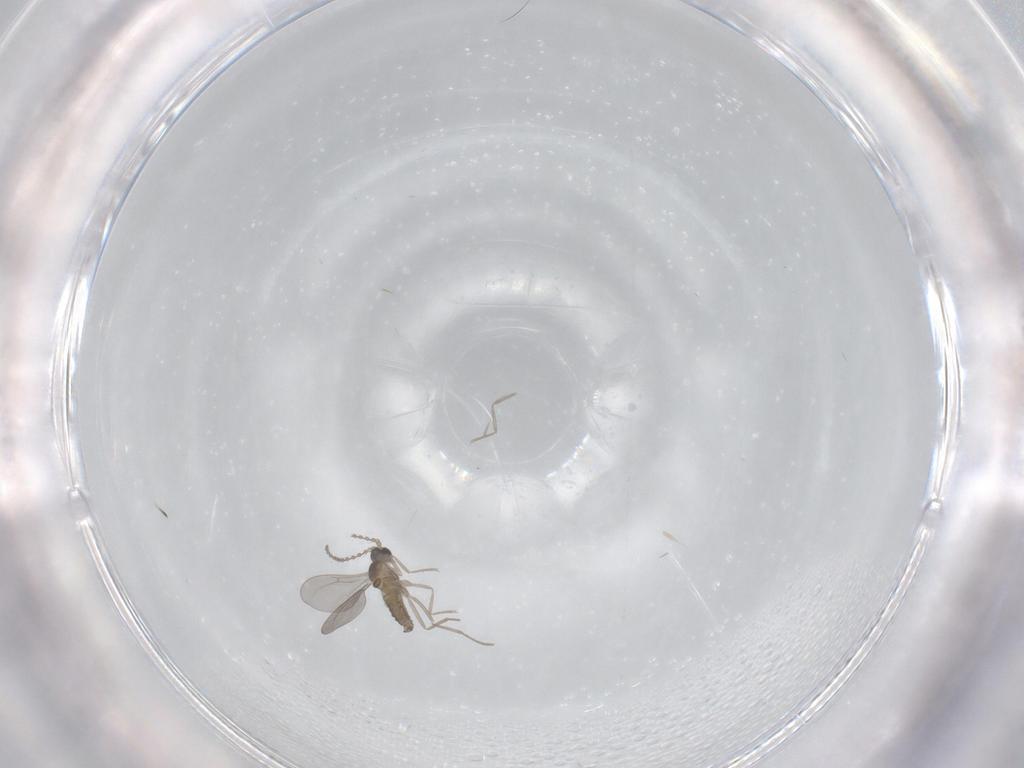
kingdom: Animalia
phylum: Arthropoda
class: Insecta
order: Diptera
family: Cecidomyiidae
